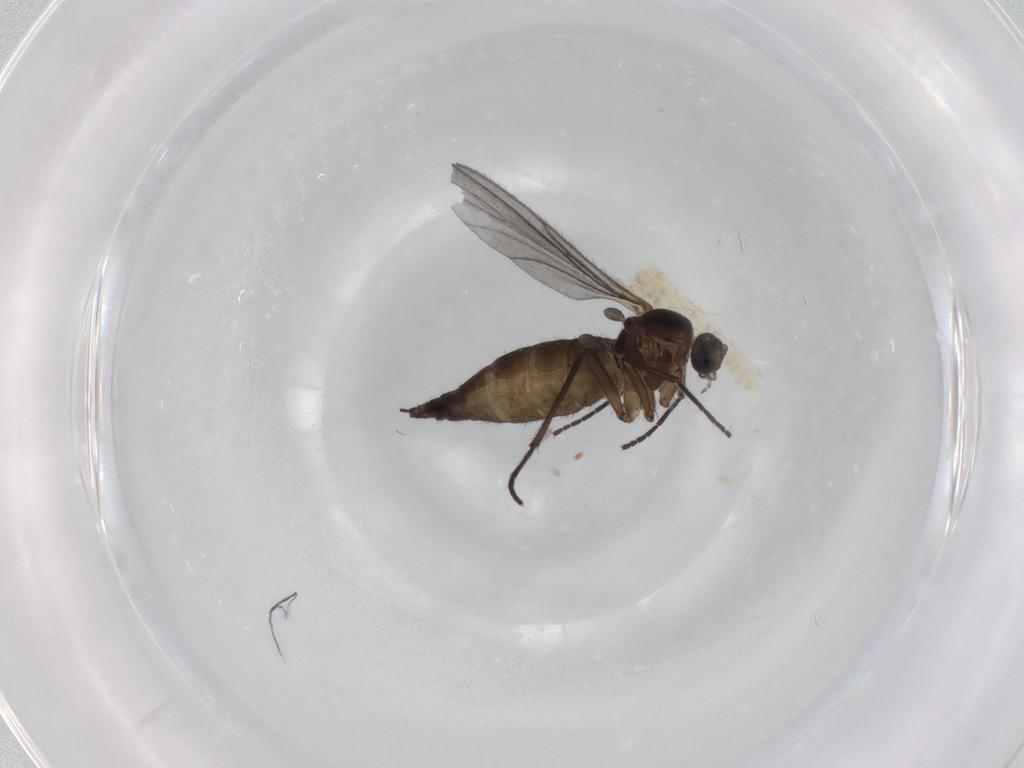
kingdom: Animalia
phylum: Arthropoda
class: Insecta
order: Diptera
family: Sciaridae
